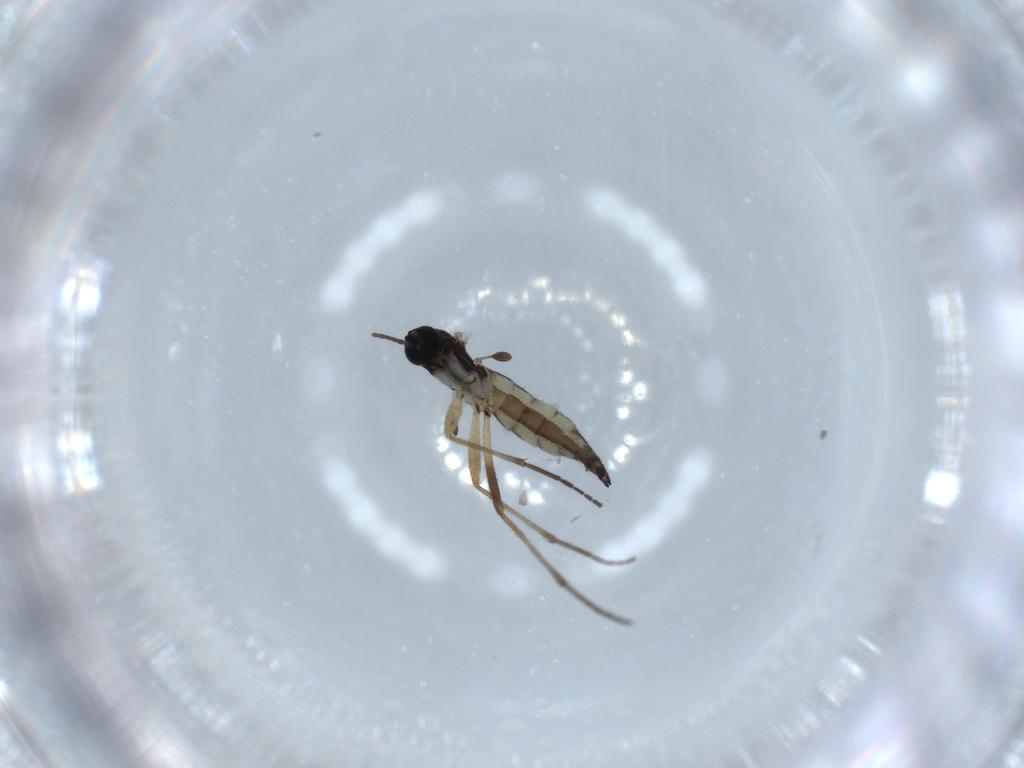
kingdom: Animalia
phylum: Arthropoda
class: Insecta
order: Diptera
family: Sciaridae
